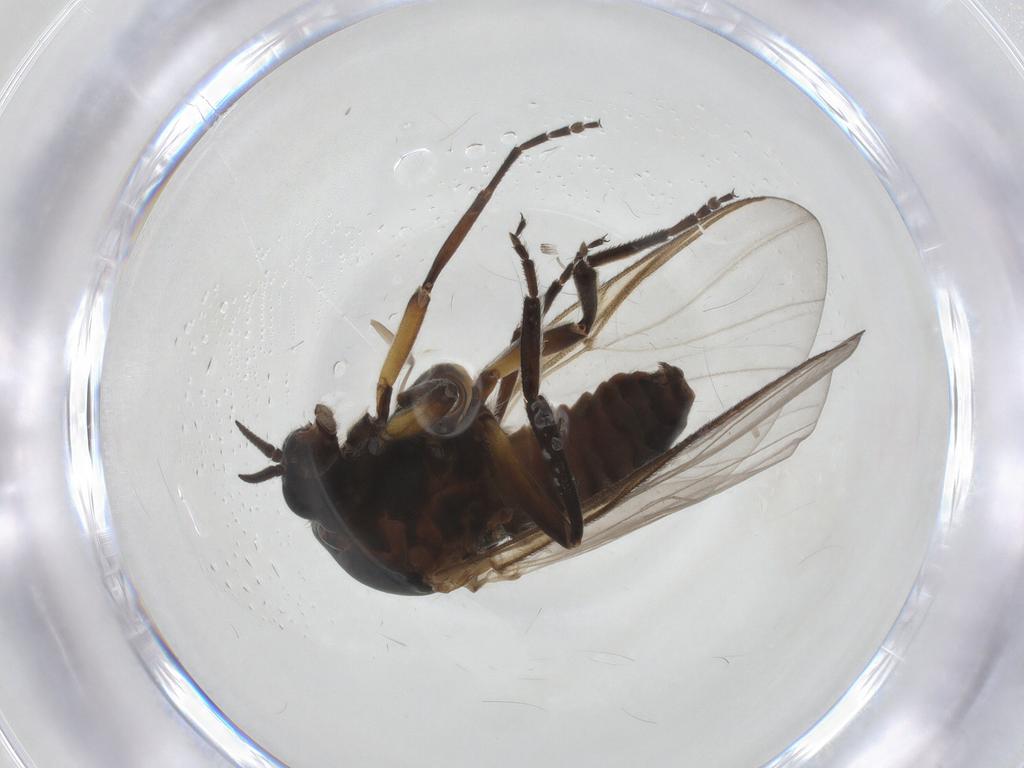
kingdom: Animalia
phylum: Arthropoda
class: Insecta
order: Diptera
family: Simuliidae
